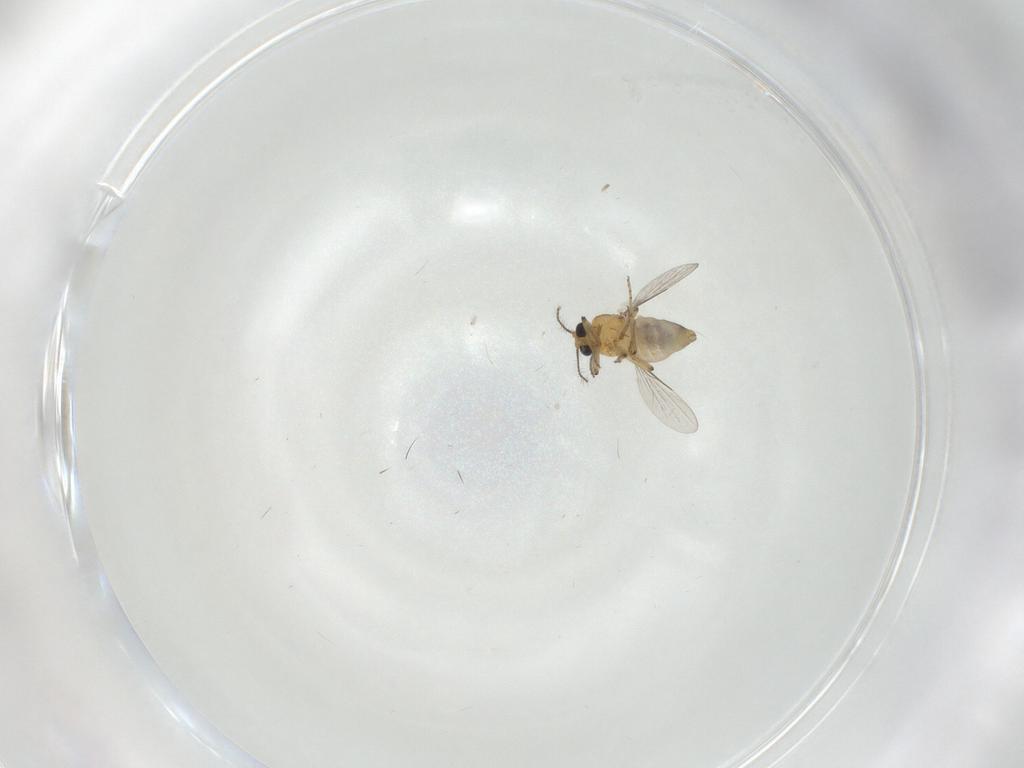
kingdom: Animalia
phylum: Arthropoda
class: Insecta
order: Diptera
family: Ceratopogonidae
